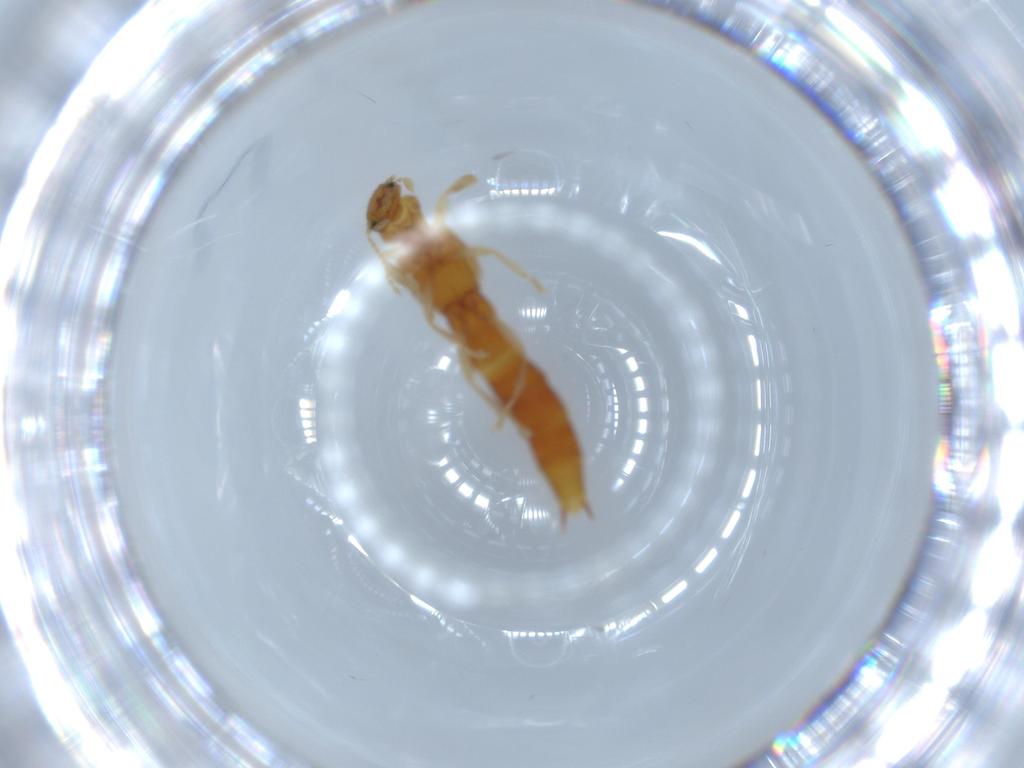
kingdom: Animalia
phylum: Arthropoda
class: Insecta
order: Coleoptera
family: Staphylinidae
